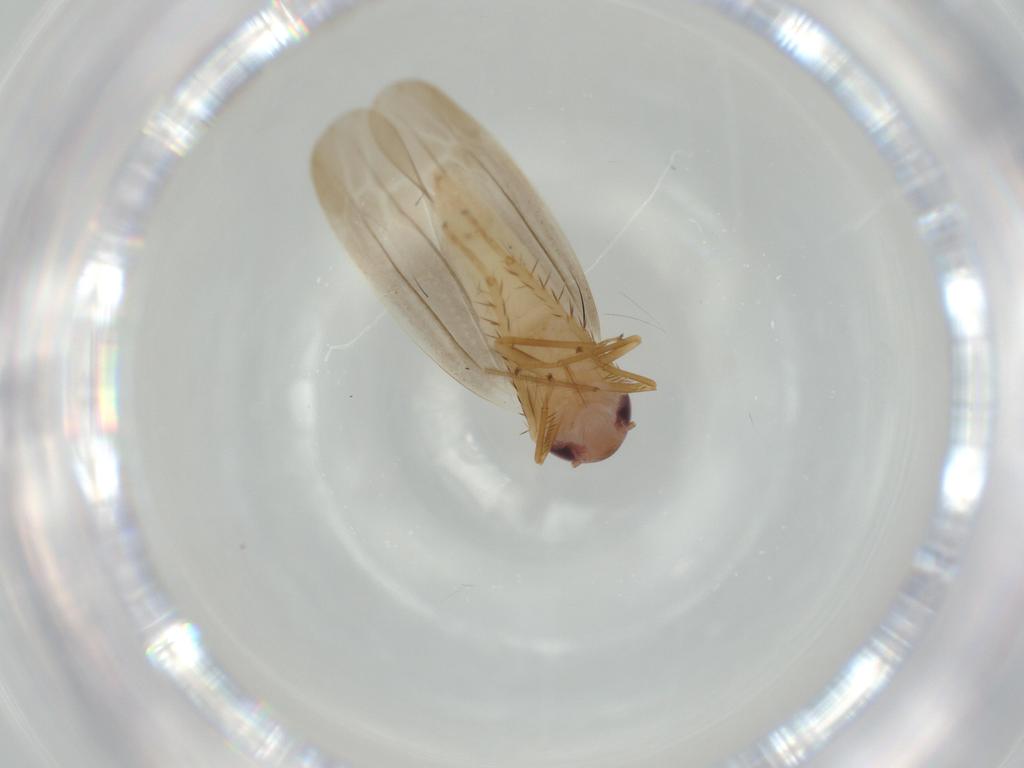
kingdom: Animalia
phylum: Arthropoda
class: Insecta
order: Hemiptera
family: Cicadellidae
